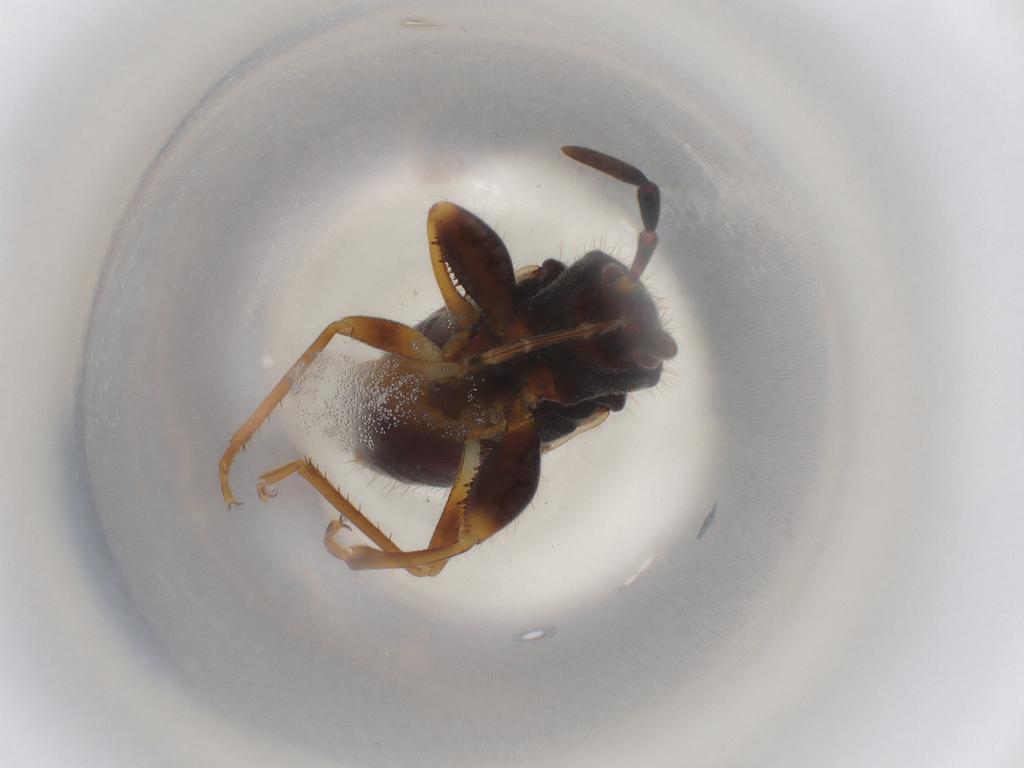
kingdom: Animalia
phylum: Arthropoda
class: Insecta
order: Hemiptera
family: Rhyparochromidae
